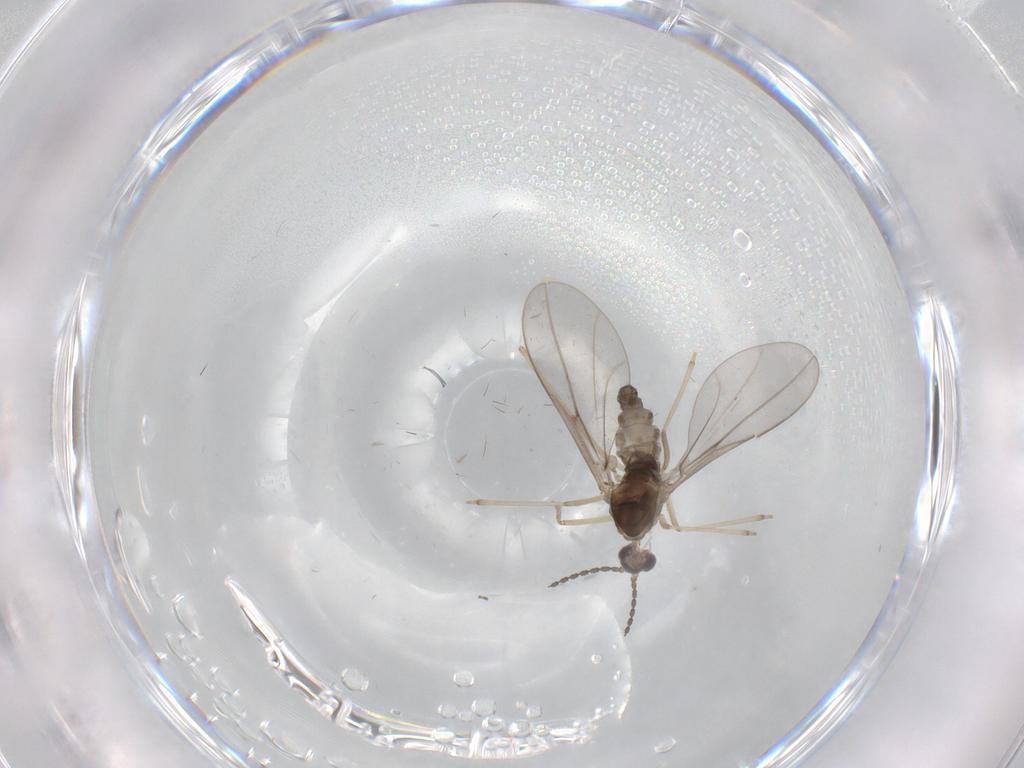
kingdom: Animalia
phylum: Arthropoda
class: Insecta
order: Diptera
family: Cecidomyiidae
